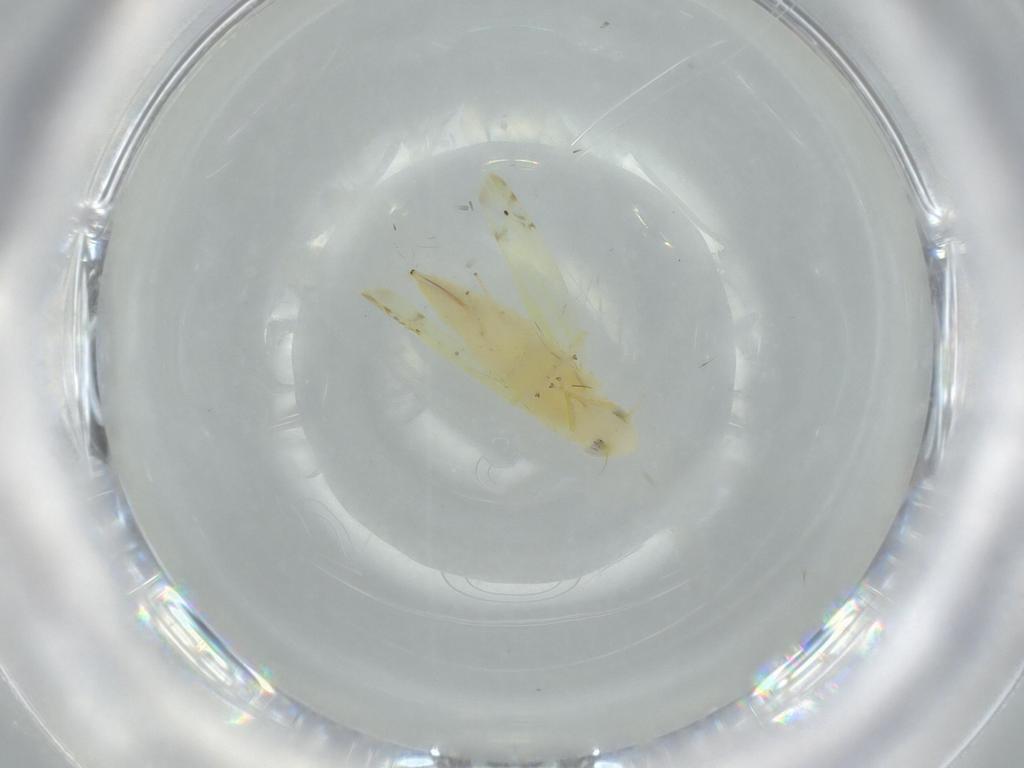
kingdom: Animalia
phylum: Arthropoda
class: Insecta
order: Hemiptera
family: Cicadellidae
